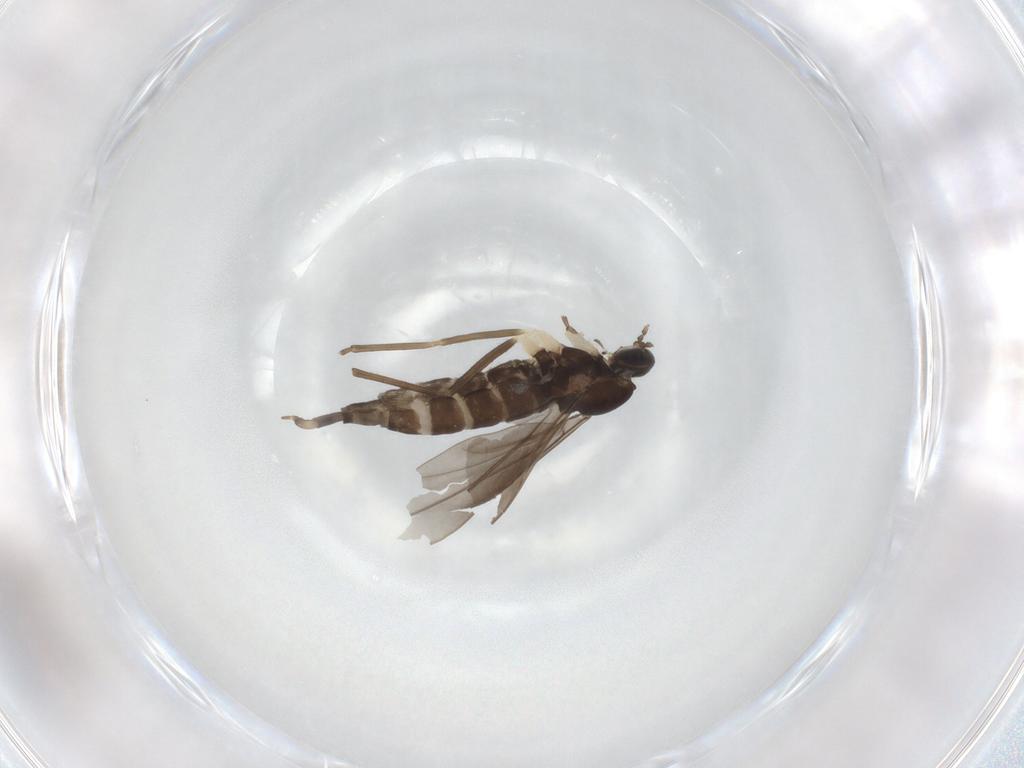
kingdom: Animalia
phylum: Arthropoda
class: Insecta
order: Diptera
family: Cecidomyiidae
